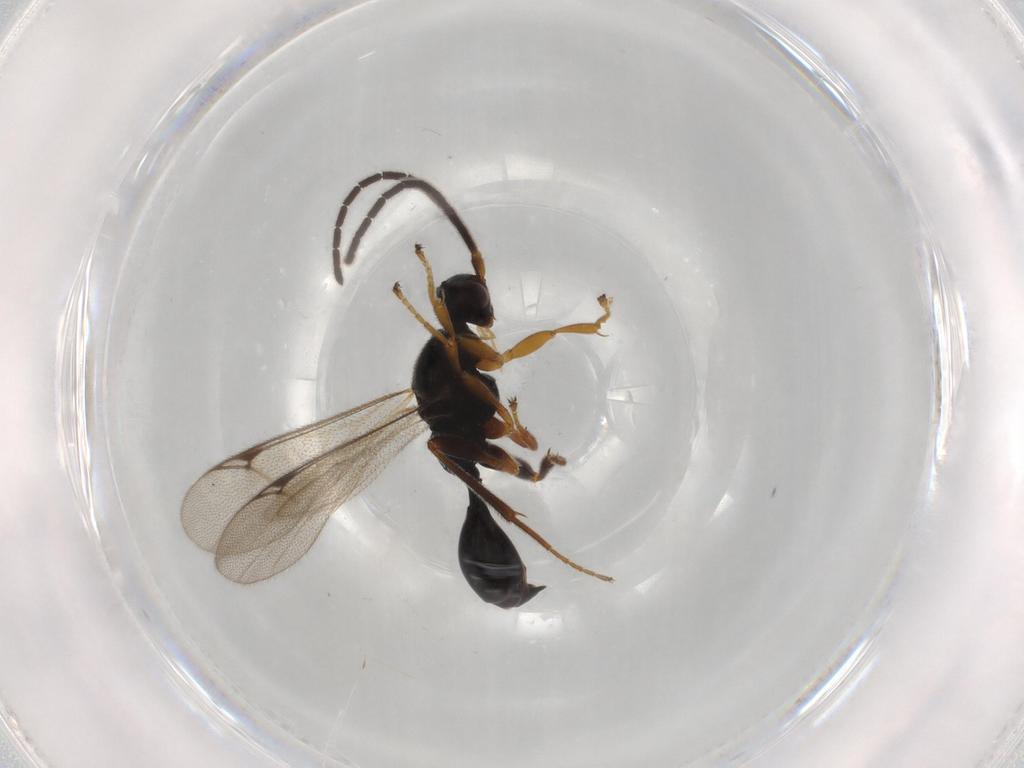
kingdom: Animalia
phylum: Arthropoda
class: Insecta
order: Hymenoptera
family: Proctotrupidae
